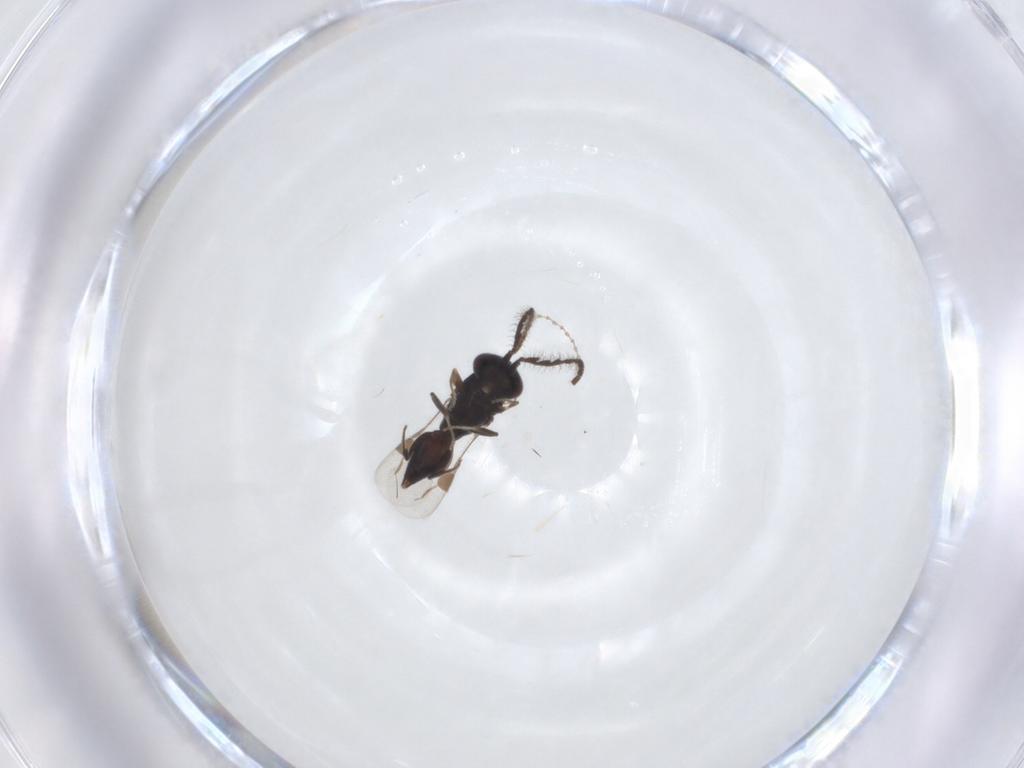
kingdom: Animalia
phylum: Arthropoda
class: Insecta
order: Hymenoptera
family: Megaspilidae
